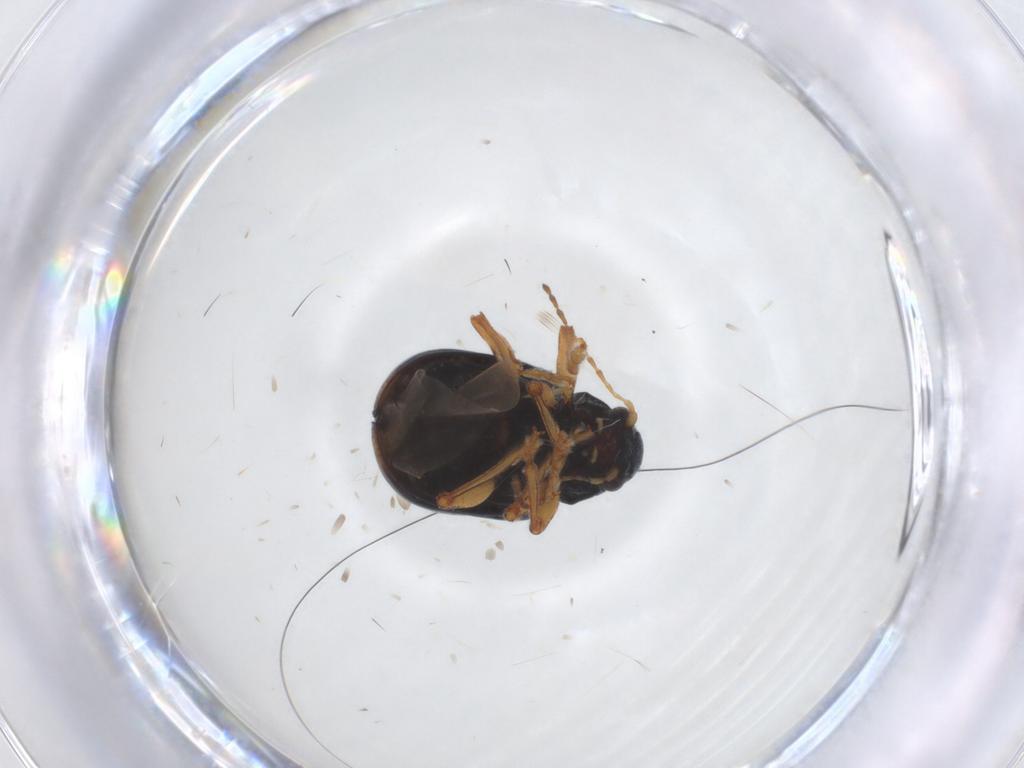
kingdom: Animalia
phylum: Arthropoda
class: Insecta
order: Coleoptera
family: Chrysomelidae
